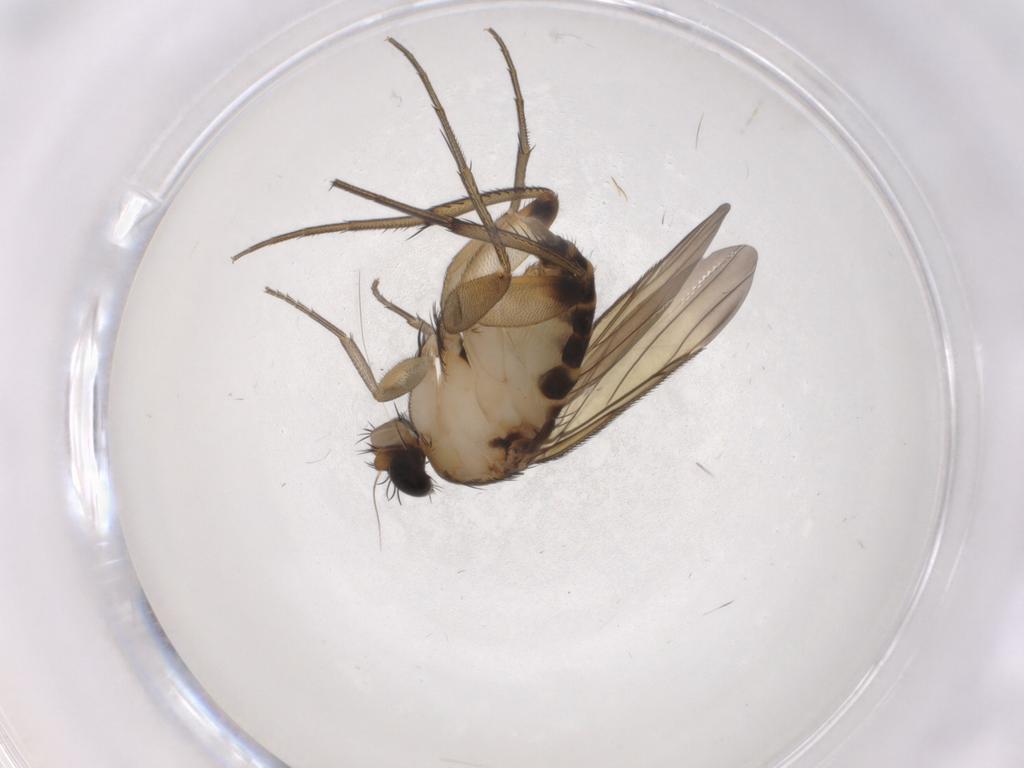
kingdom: Animalia
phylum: Arthropoda
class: Insecta
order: Diptera
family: Phoridae
